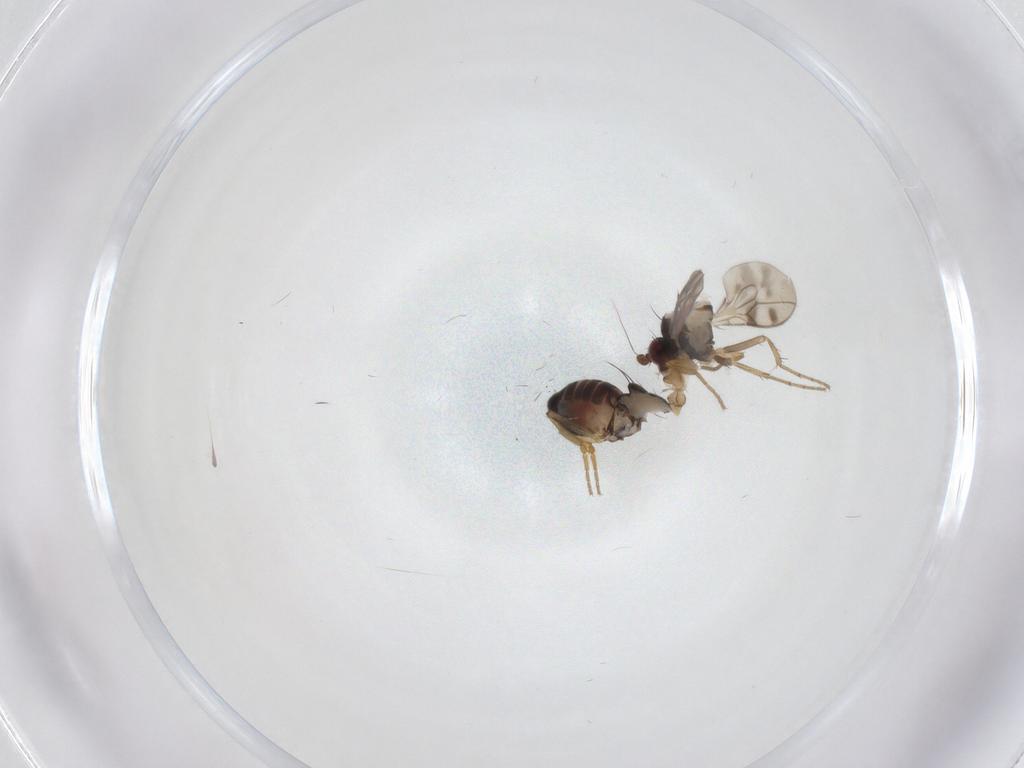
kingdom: Animalia
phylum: Arthropoda
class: Insecta
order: Diptera
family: Sphaeroceridae
